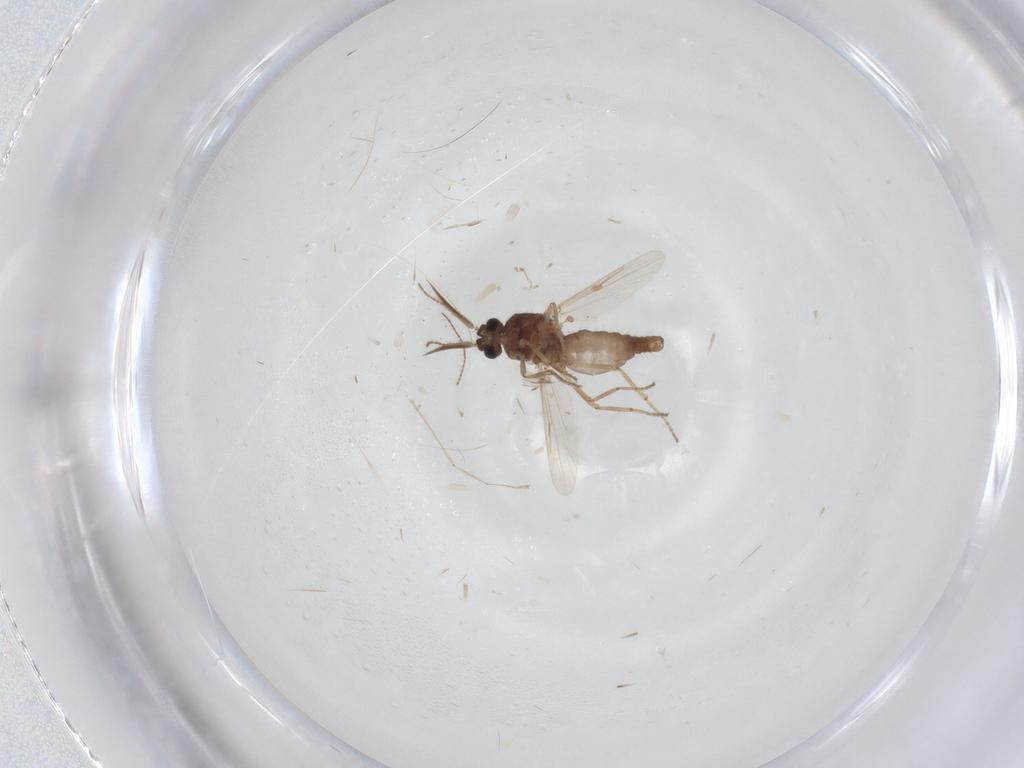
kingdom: Animalia
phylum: Arthropoda
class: Insecta
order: Diptera
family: Ceratopogonidae
